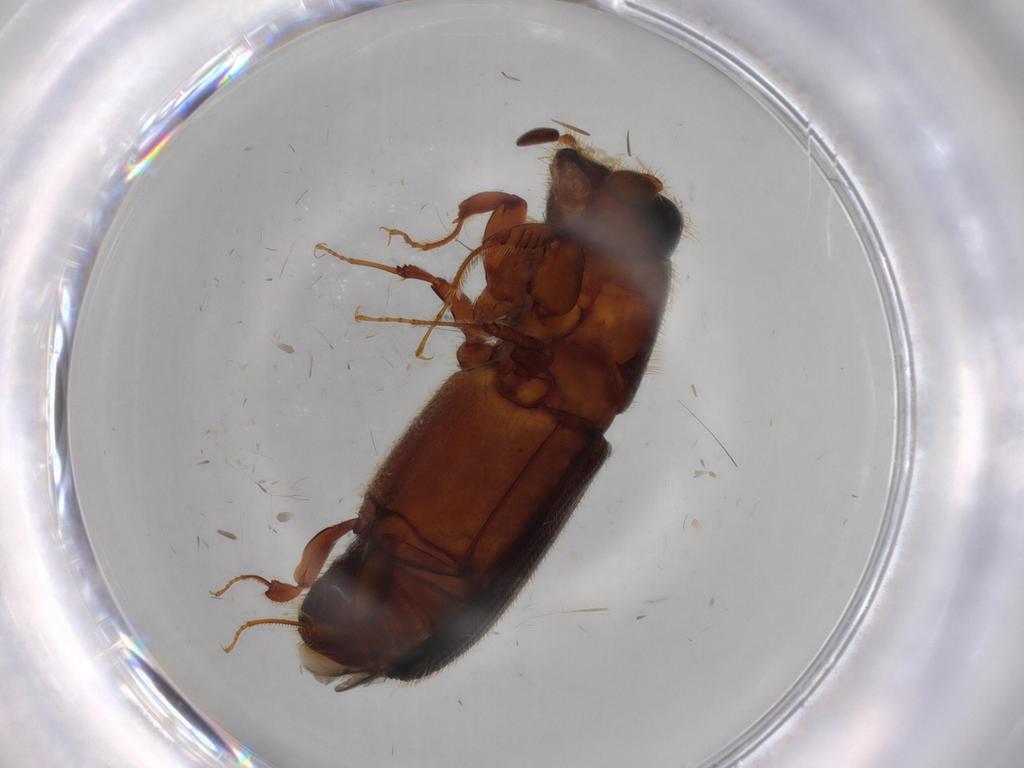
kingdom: Animalia
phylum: Arthropoda
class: Insecta
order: Coleoptera
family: Curculionidae
